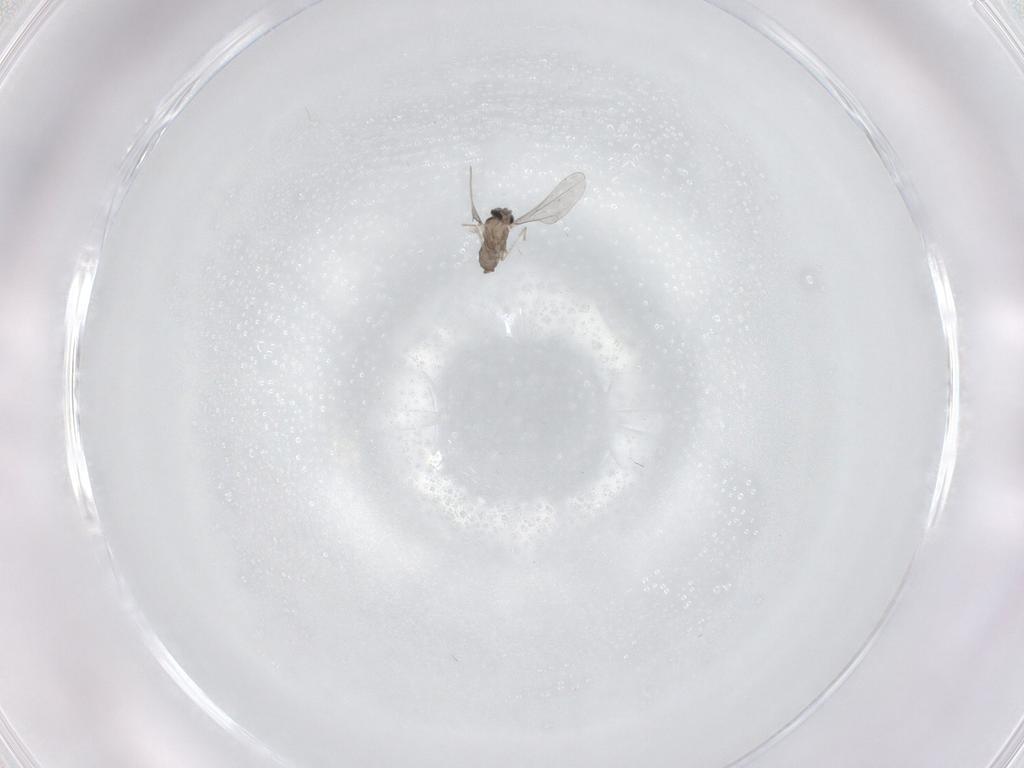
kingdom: Animalia
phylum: Arthropoda
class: Insecta
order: Diptera
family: Cecidomyiidae
